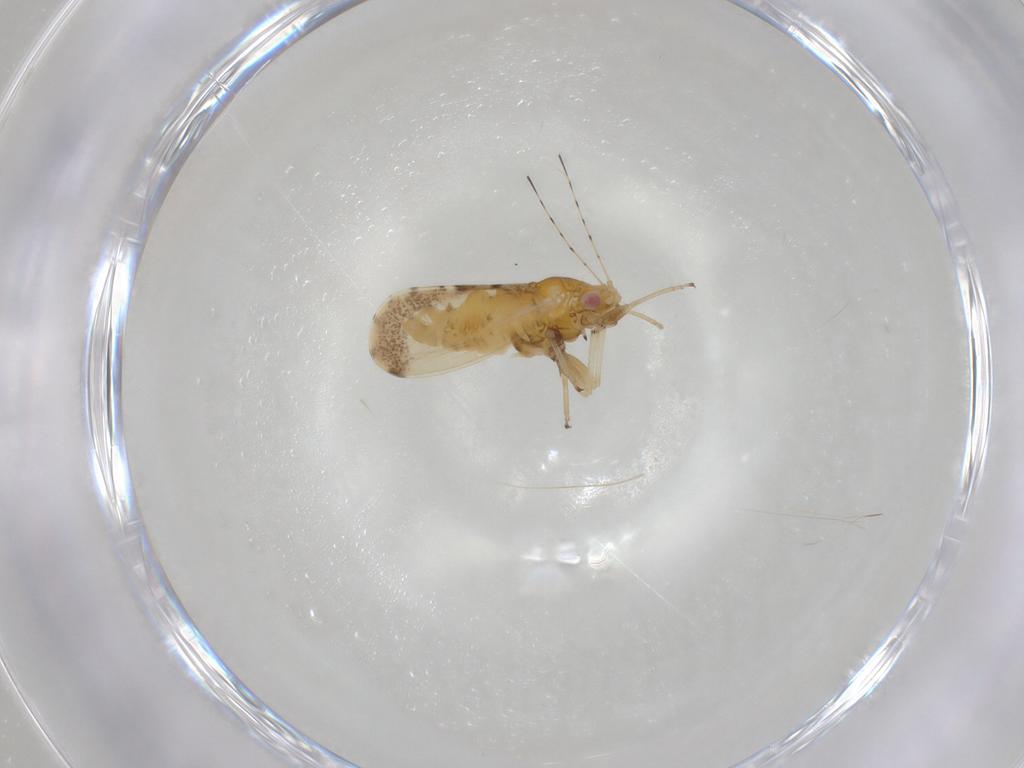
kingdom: Animalia
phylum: Arthropoda
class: Insecta
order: Hemiptera
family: Psyllidae
